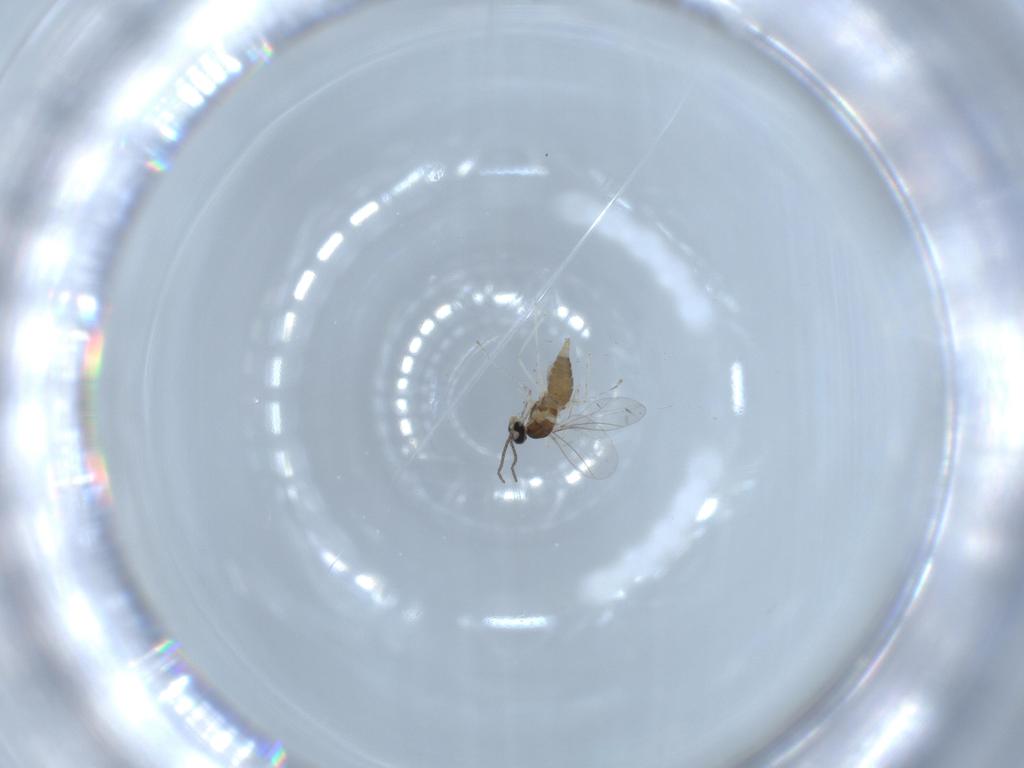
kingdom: Animalia
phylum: Arthropoda
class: Insecta
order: Diptera
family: Cecidomyiidae
